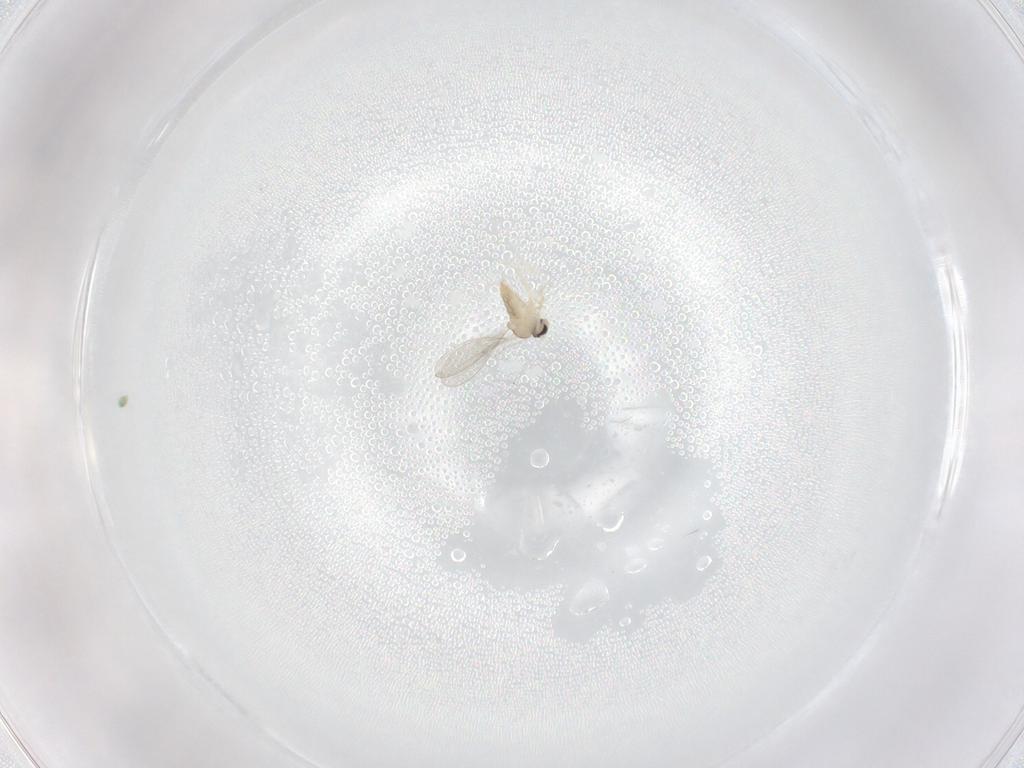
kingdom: Animalia
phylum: Arthropoda
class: Insecta
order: Diptera
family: Cecidomyiidae
